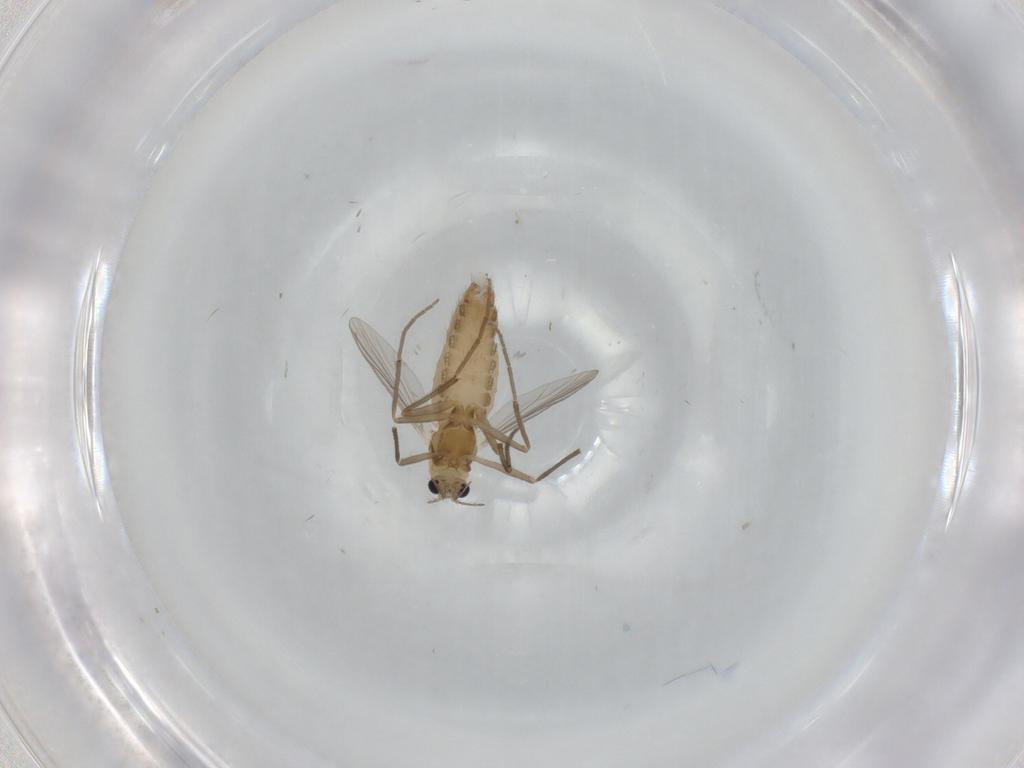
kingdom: Animalia
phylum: Arthropoda
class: Insecta
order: Diptera
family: Chironomidae
